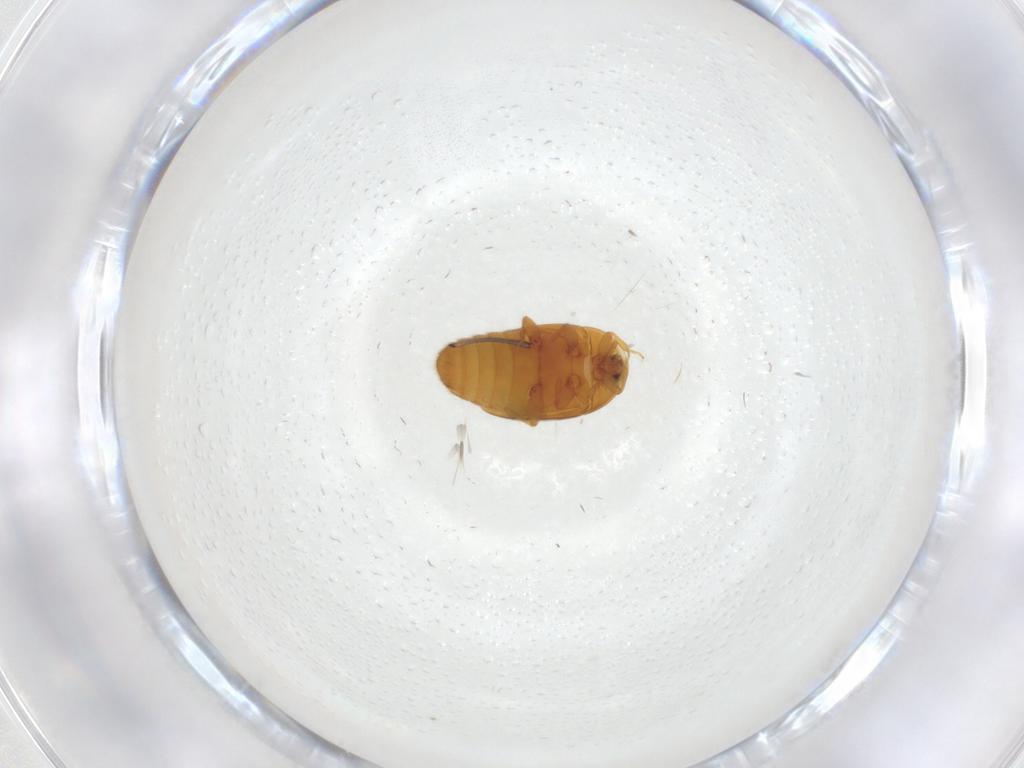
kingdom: Animalia
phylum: Arthropoda
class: Insecta
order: Coleoptera
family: Corylophidae
